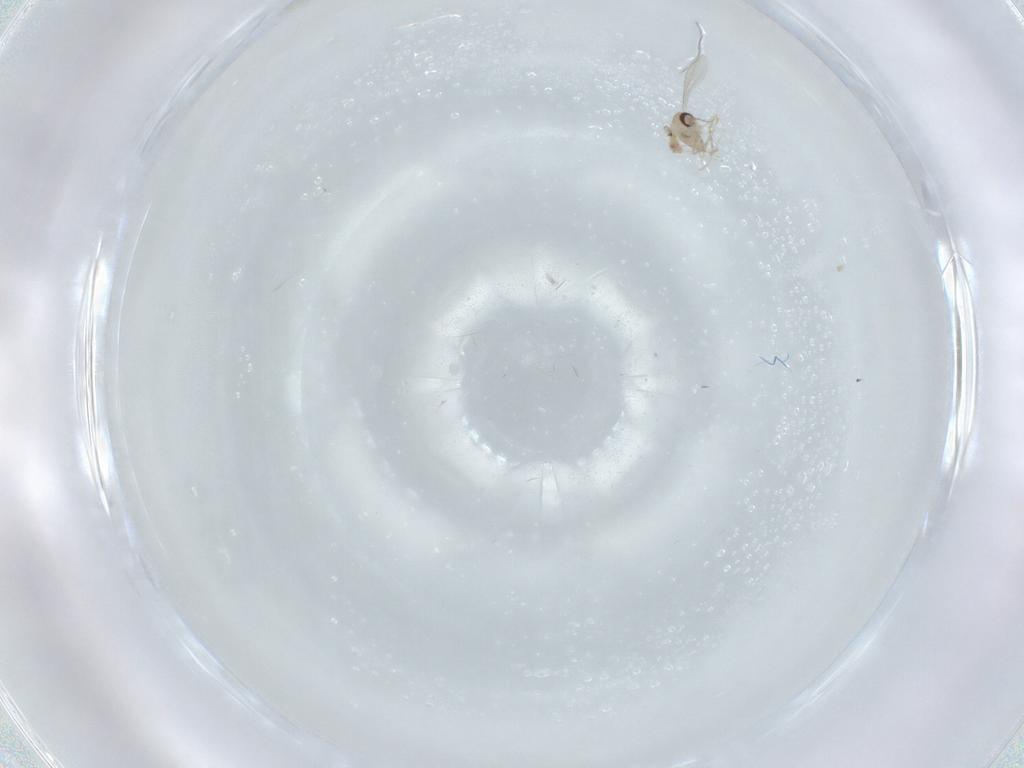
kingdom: Animalia
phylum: Arthropoda
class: Insecta
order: Diptera
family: Cecidomyiidae
